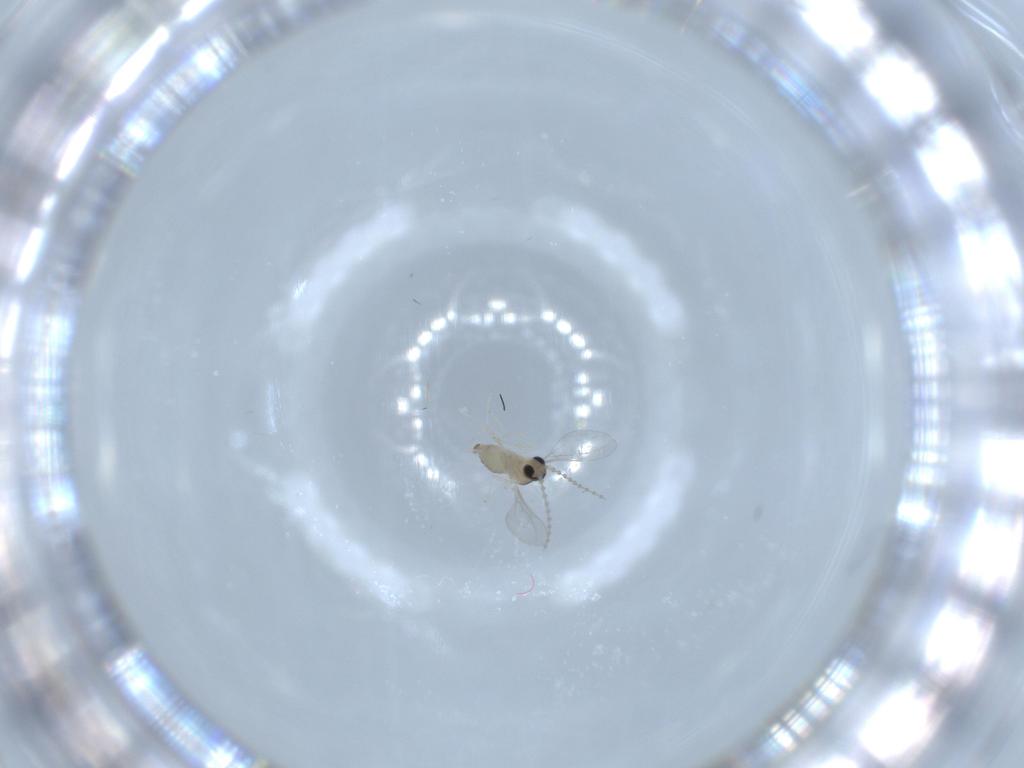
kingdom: Animalia
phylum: Arthropoda
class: Insecta
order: Diptera
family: Cecidomyiidae
